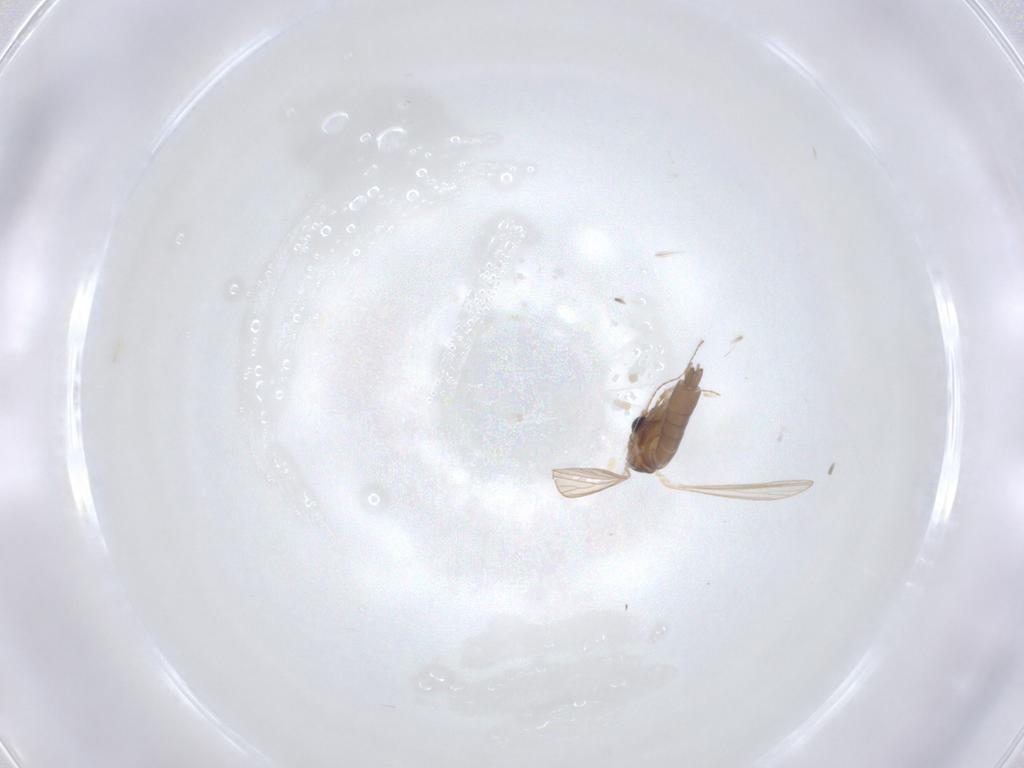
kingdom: Animalia
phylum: Arthropoda
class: Insecta
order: Diptera
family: Psychodidae
